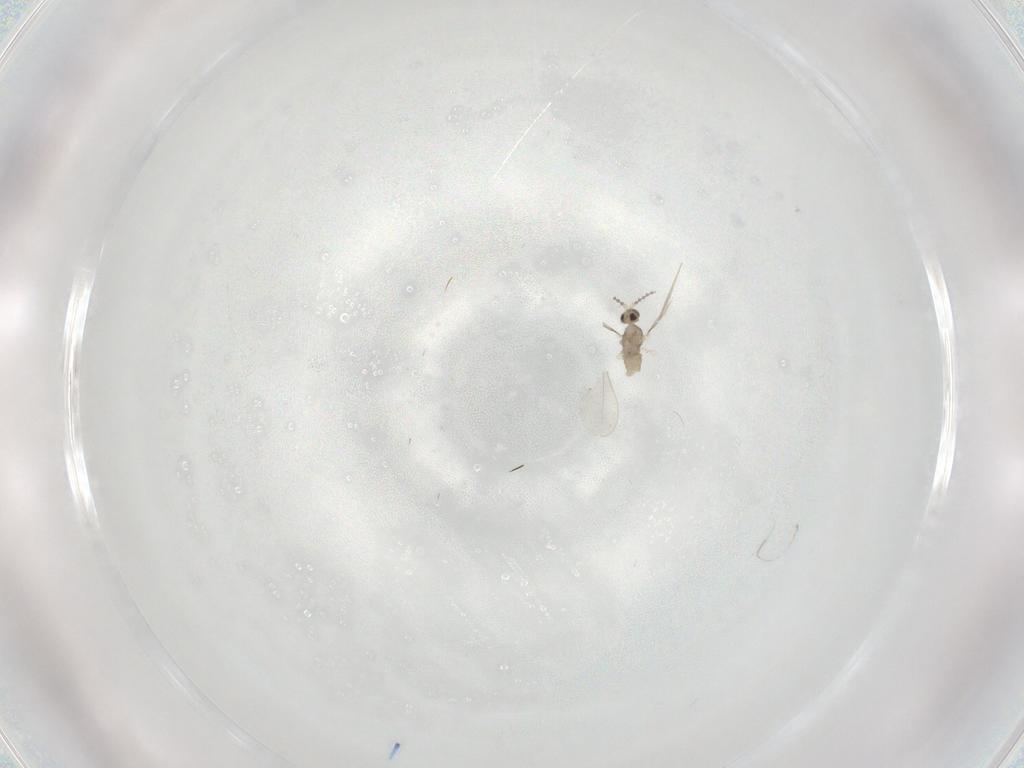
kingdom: Animalia
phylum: Arthropoda
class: Insecta
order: Diptera
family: Cecidomyiidae
